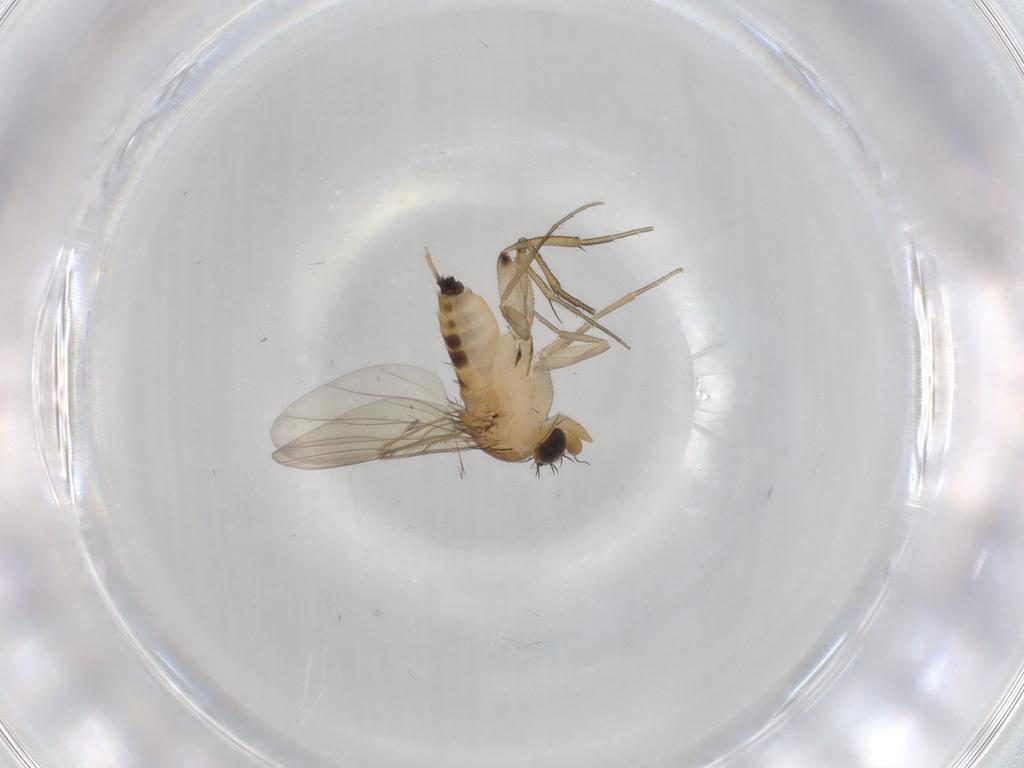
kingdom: Animalia
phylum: Arthropoda
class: Insecta
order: Diptera
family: Phoridae
